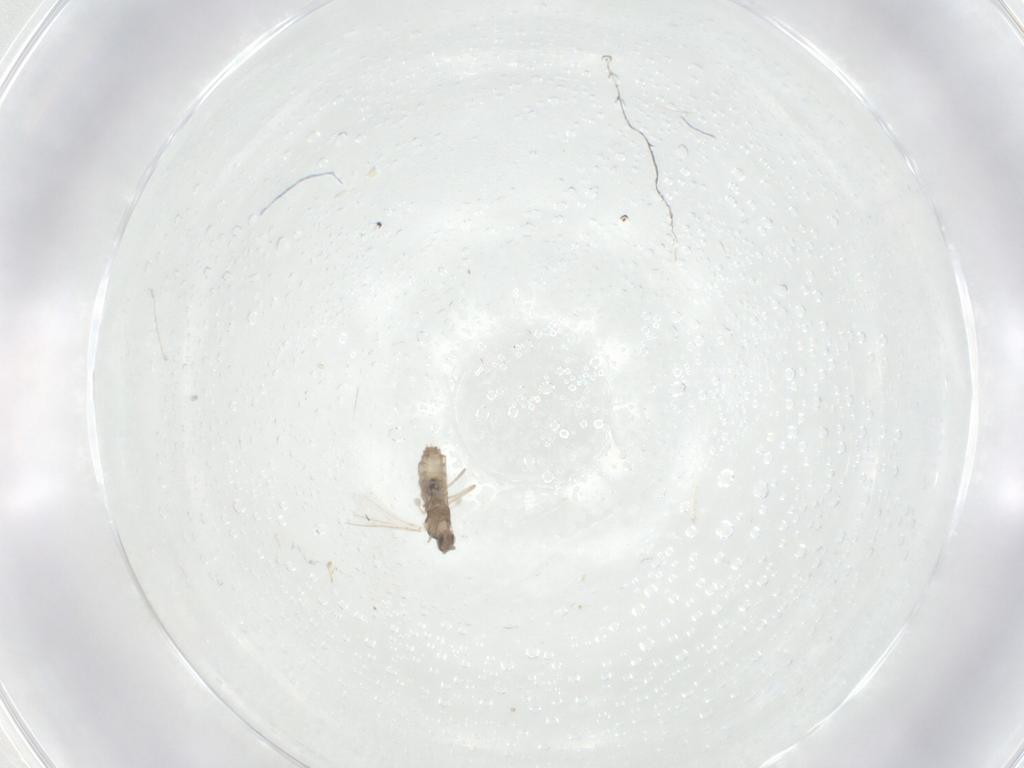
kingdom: Animalia
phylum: Arthropoda
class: Insecta
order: Diptera
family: Cecidomyiidae
